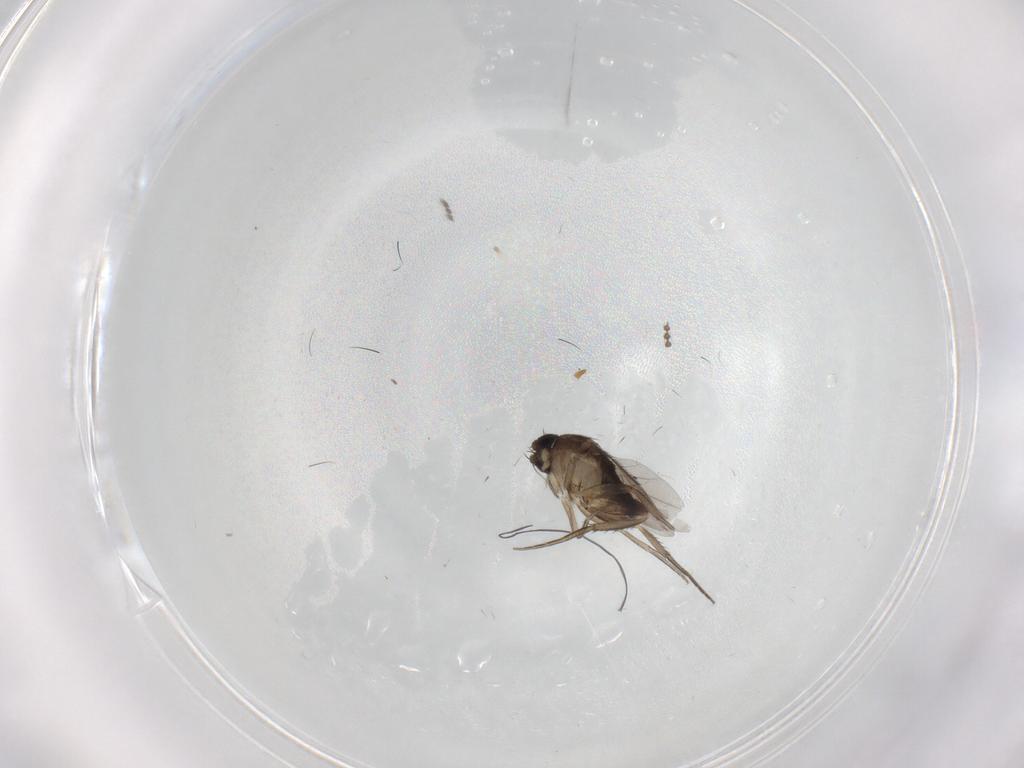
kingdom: Animalia
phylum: Arthropoda
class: Insecta
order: Diptera
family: Phoridae
